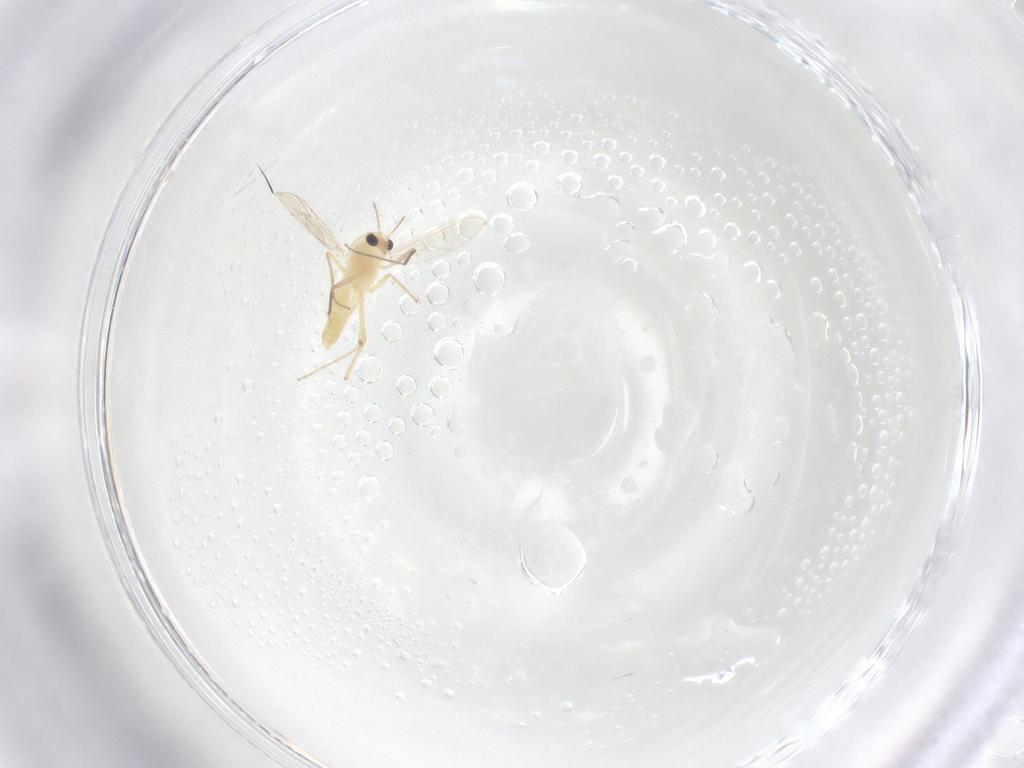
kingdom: Animalia
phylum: Arthropoda
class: Insecta
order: Diptera
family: Chironomidae
